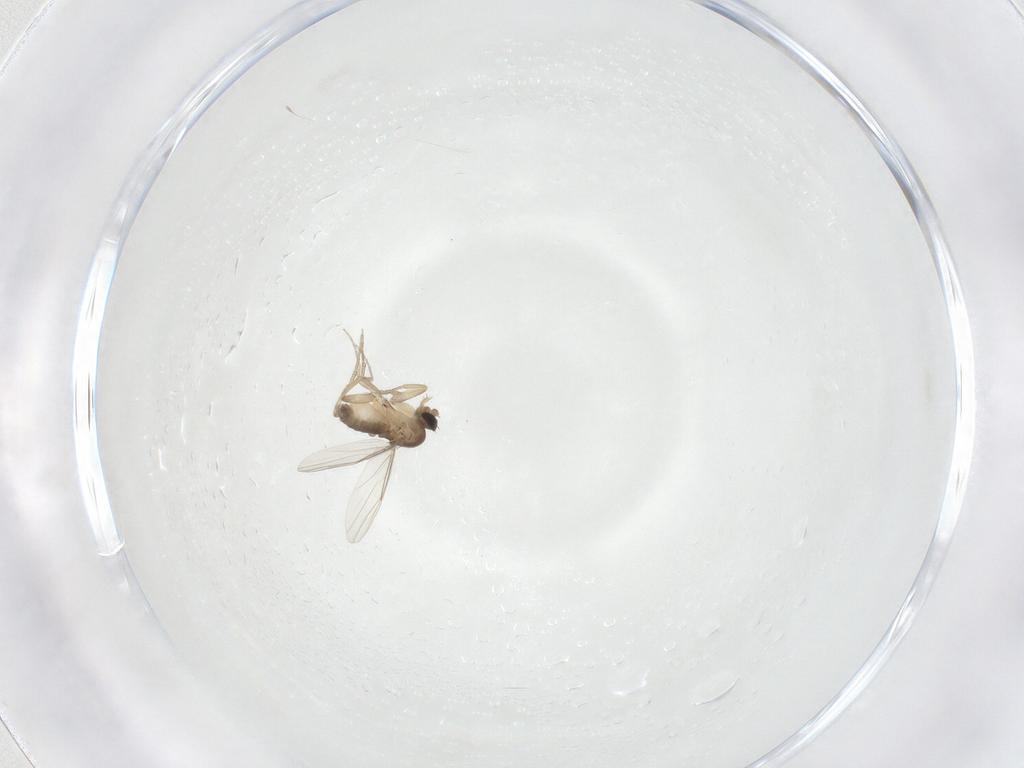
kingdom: Animalia
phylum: Arthropoda
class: Insecta
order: Diptera
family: Phoridae
